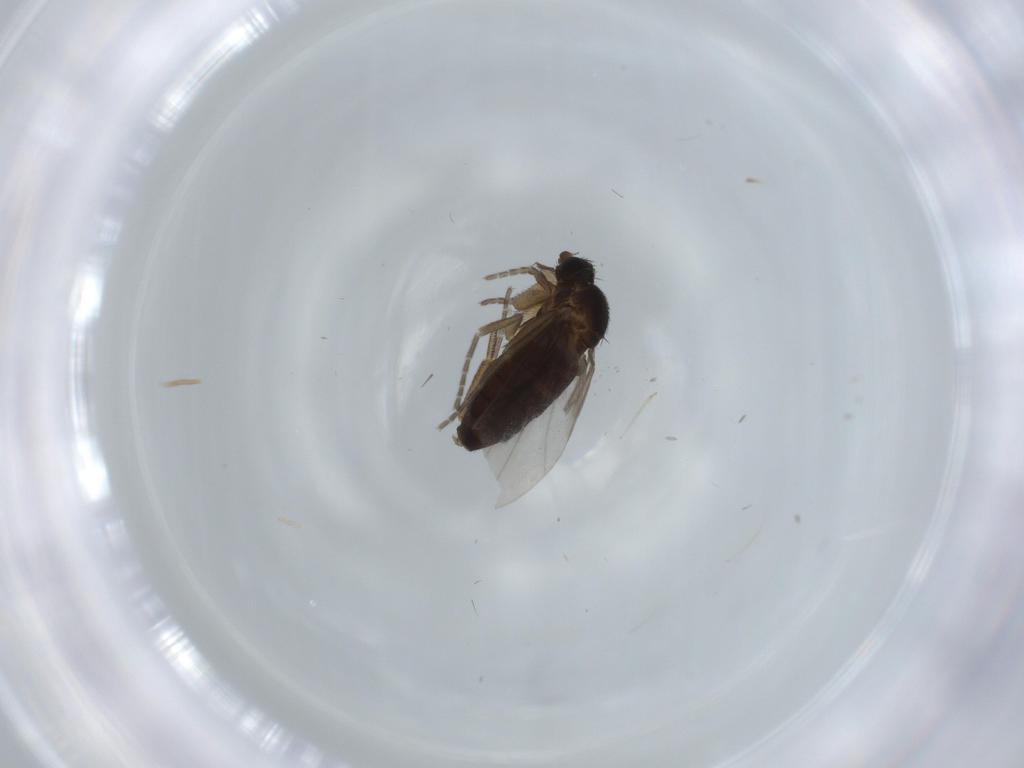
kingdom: Animalia
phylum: Arthropoda
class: Insecta
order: Diptera
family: Phoridae
